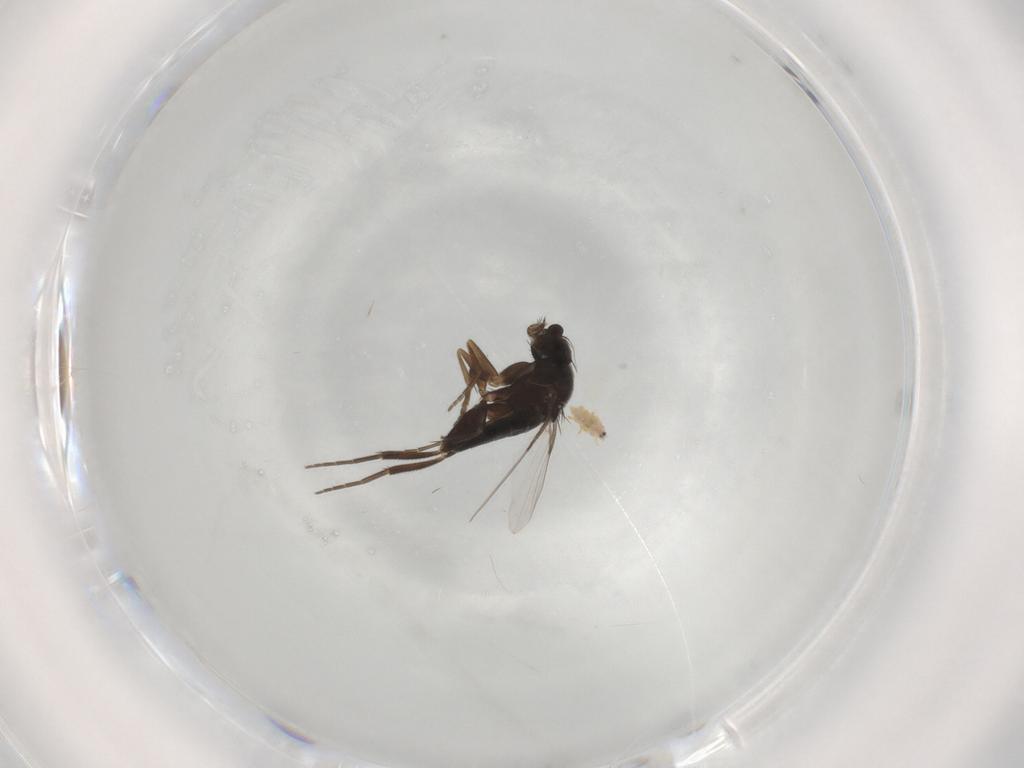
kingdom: Animalia
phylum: Arthropoda
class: Insecta
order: Diptera
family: Phoridae
